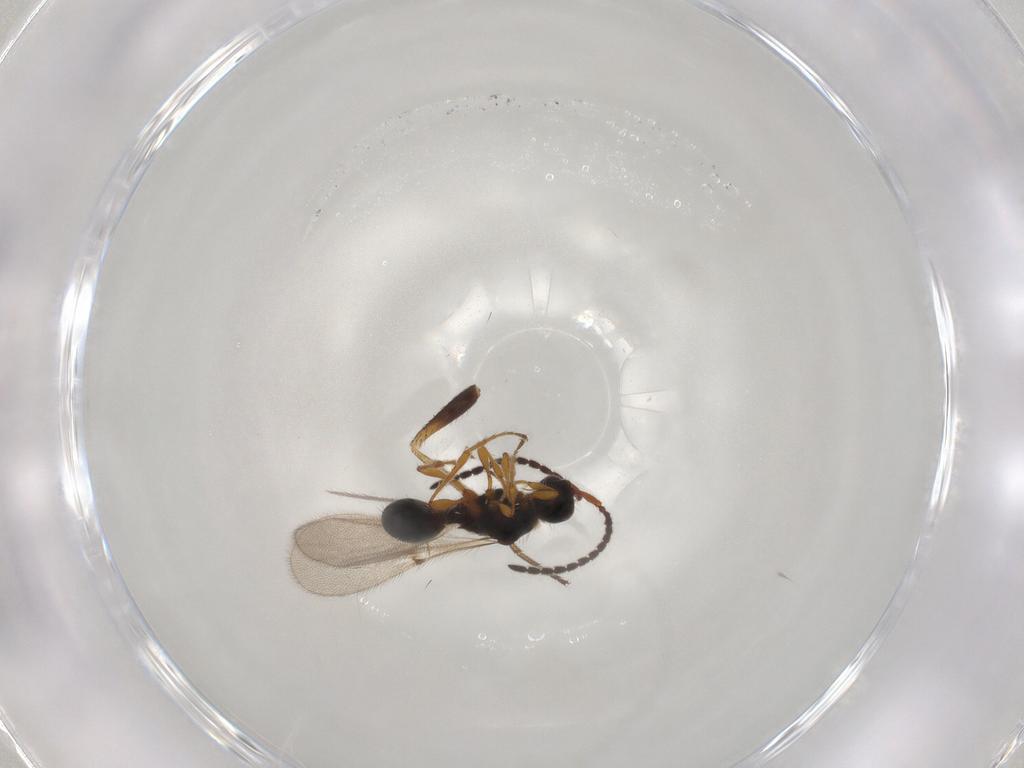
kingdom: Animalia
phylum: Arthropoda
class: Insecta
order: Hymenoptera
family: Diapriidae
